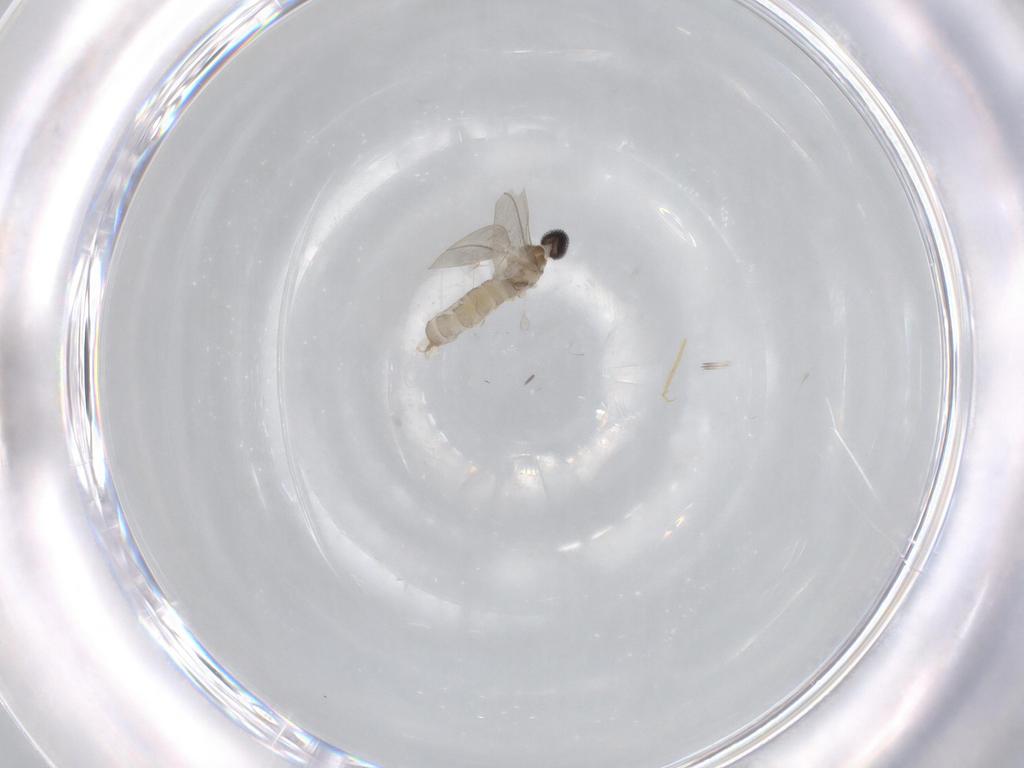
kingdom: Animalia
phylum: Arthropoda
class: Insecta
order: Diptera
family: Cecidomyiidae
